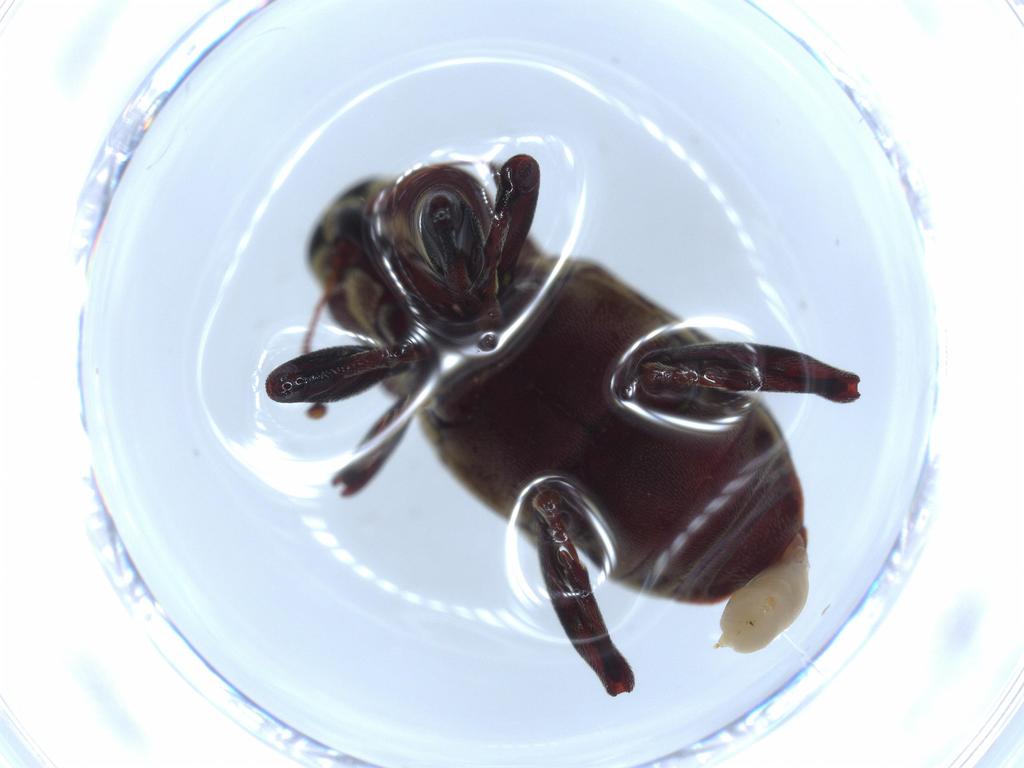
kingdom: Animalia
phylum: Arthropoda
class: Insecta
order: Coleoptera
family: Curculionidae
